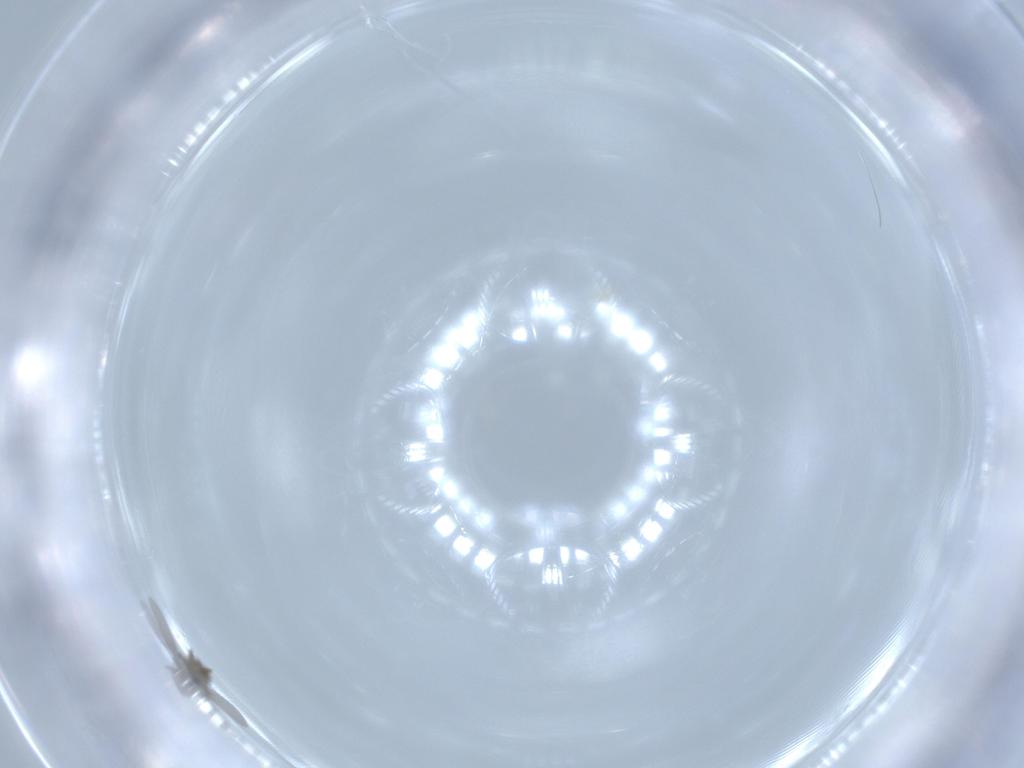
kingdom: Animalia
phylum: Arthropoda
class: Insecta
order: Hemiptera
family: Diaspididae
